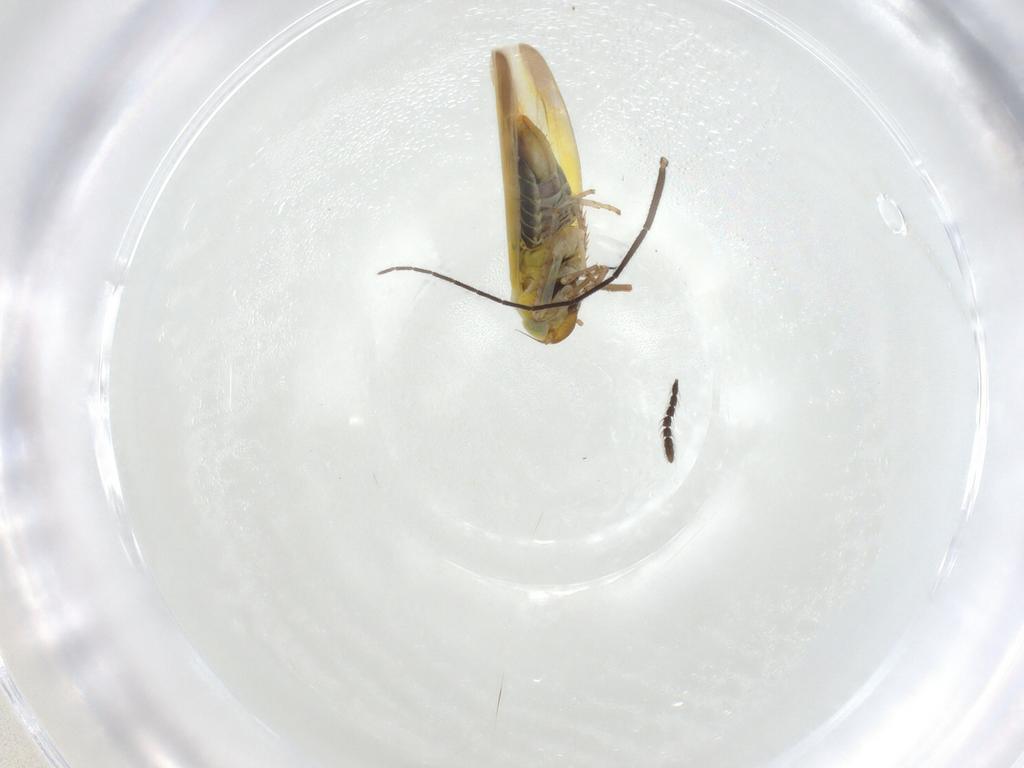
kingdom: Animalia
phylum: Arthropoda
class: Insecta
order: Hemiptera
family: Cicadellidae
